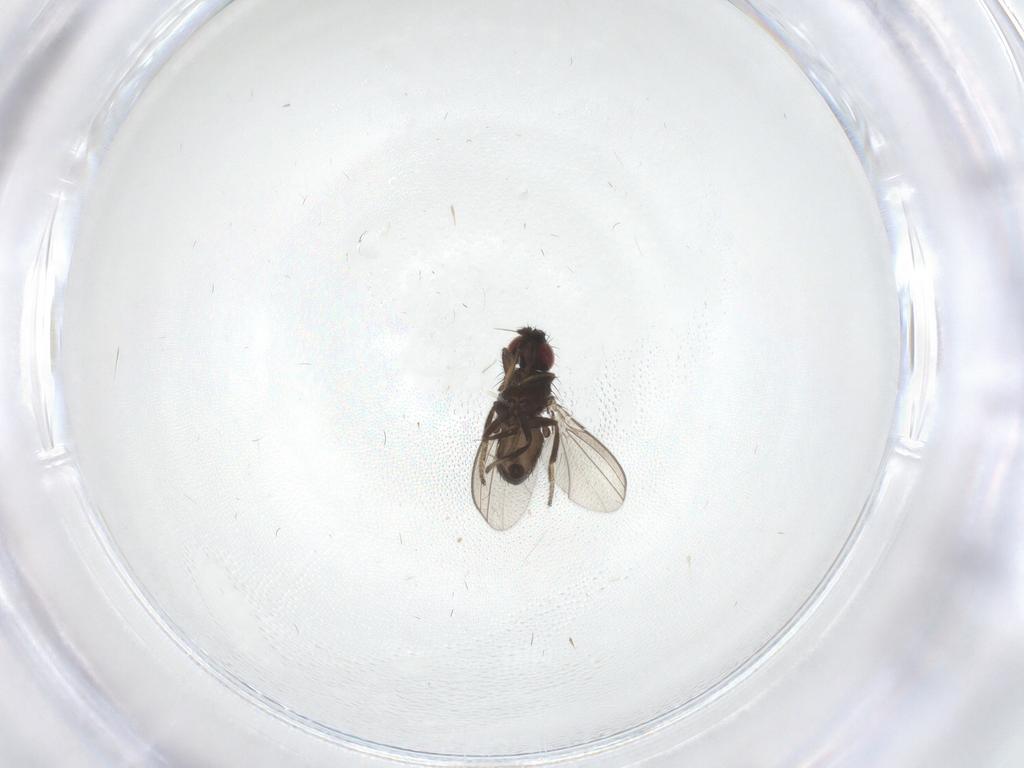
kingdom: Animalia
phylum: Arthropoda
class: Insecta
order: Diptera
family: Milichiidae
